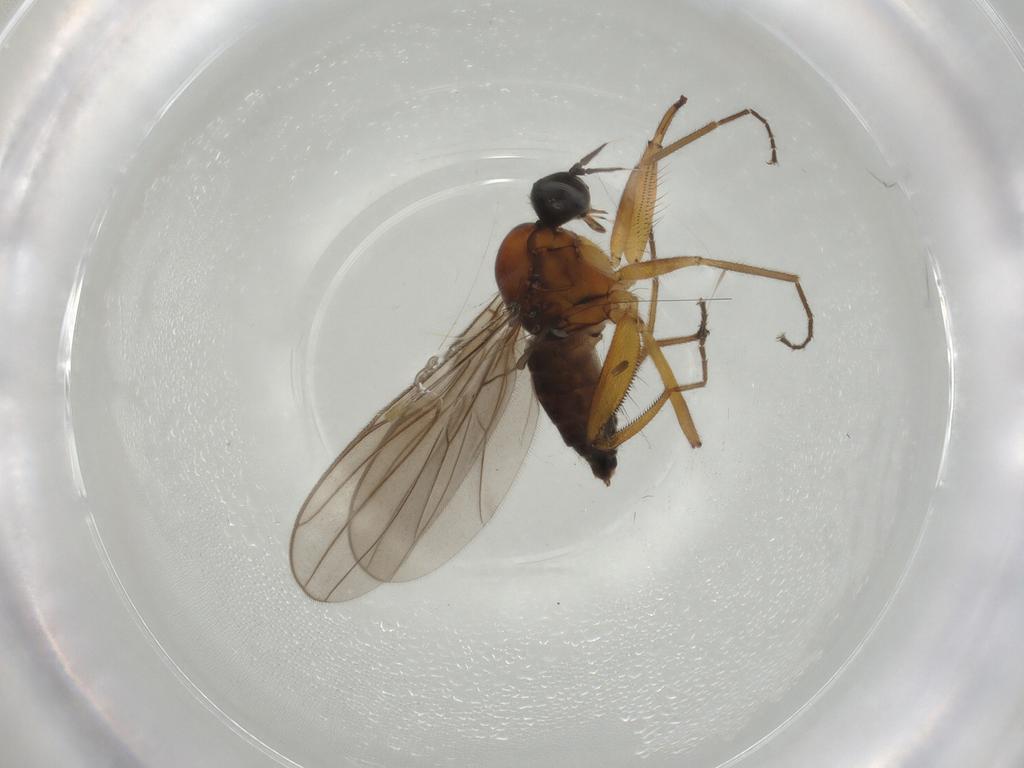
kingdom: Animalia
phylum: Arthropoda
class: Insecta
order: Diptera
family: Hybotidae
